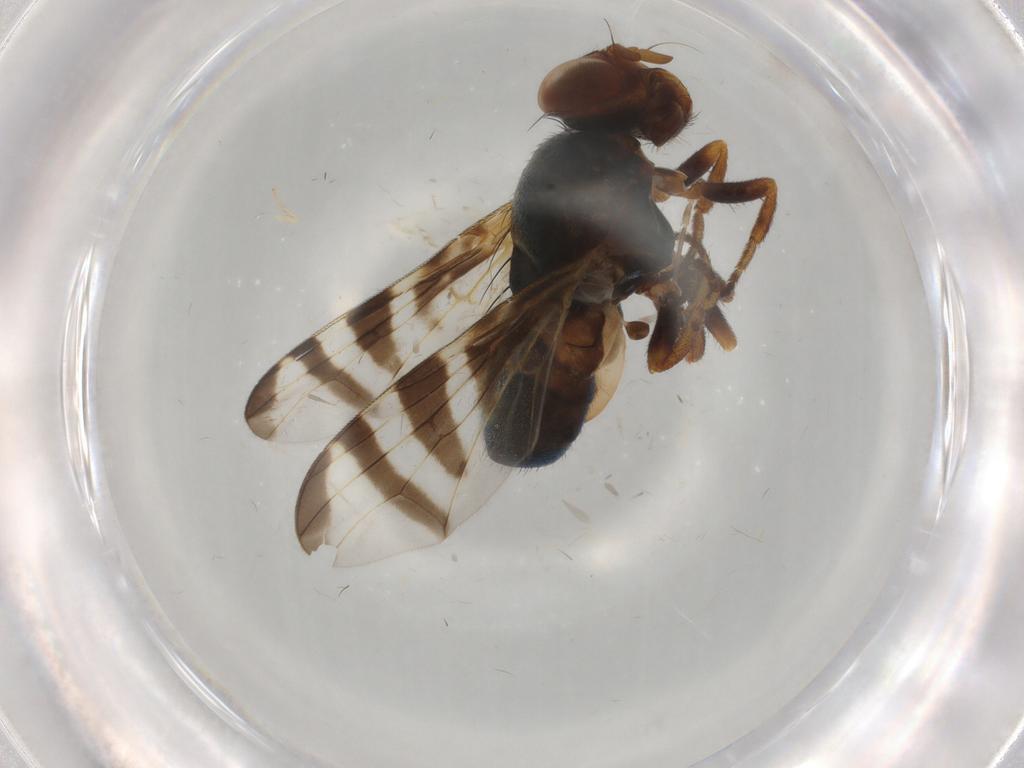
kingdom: Animalia
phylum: Arthropoda
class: Insecta
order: Diptera
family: Psychodidae
